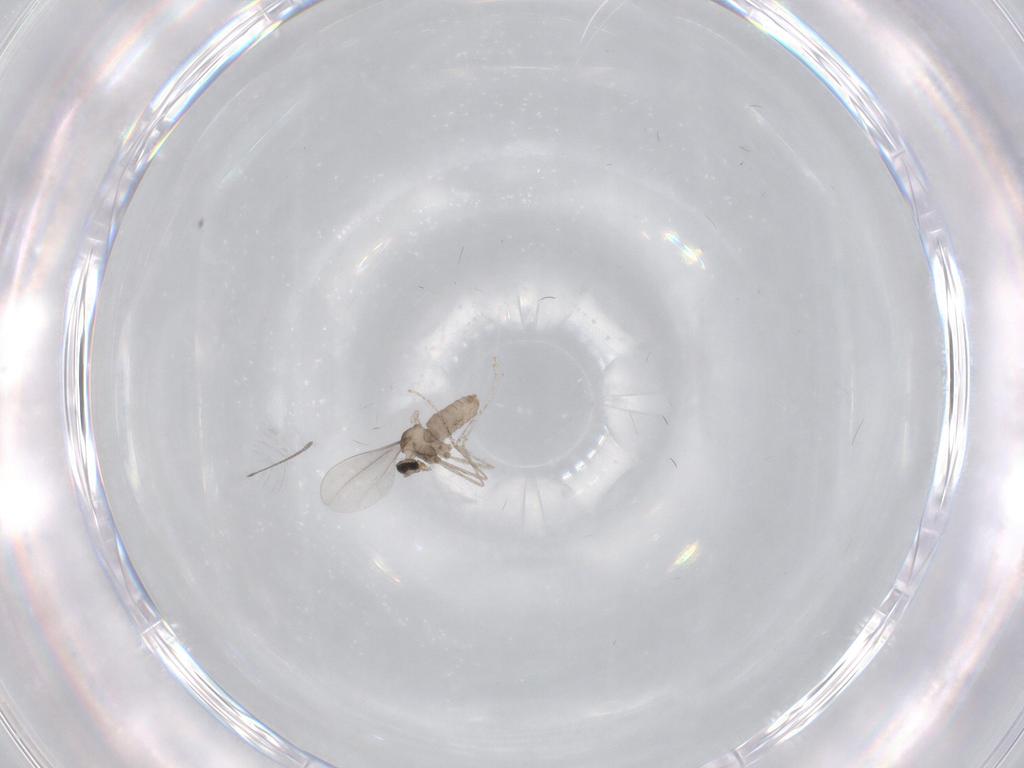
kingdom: Animalia
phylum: Arthropoda
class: Insecta
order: Diptera
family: Cecidomyiidae
